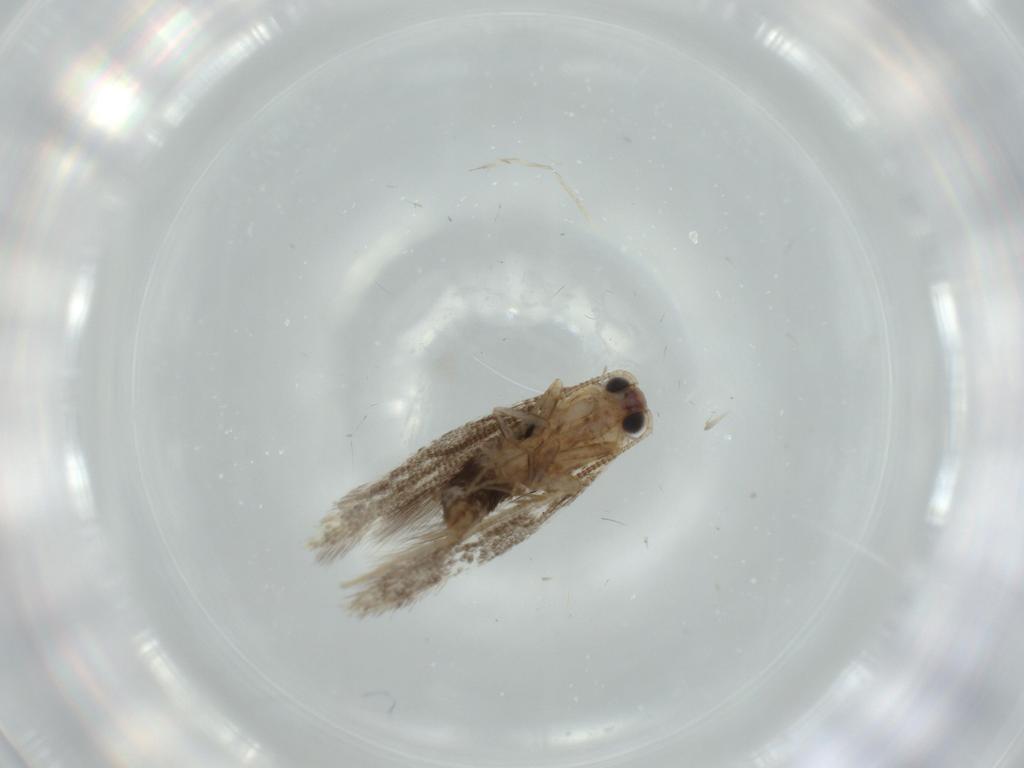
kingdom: Animalia
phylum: Arthropoda
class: Insecta
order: Lepidoptera
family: Tineidae
